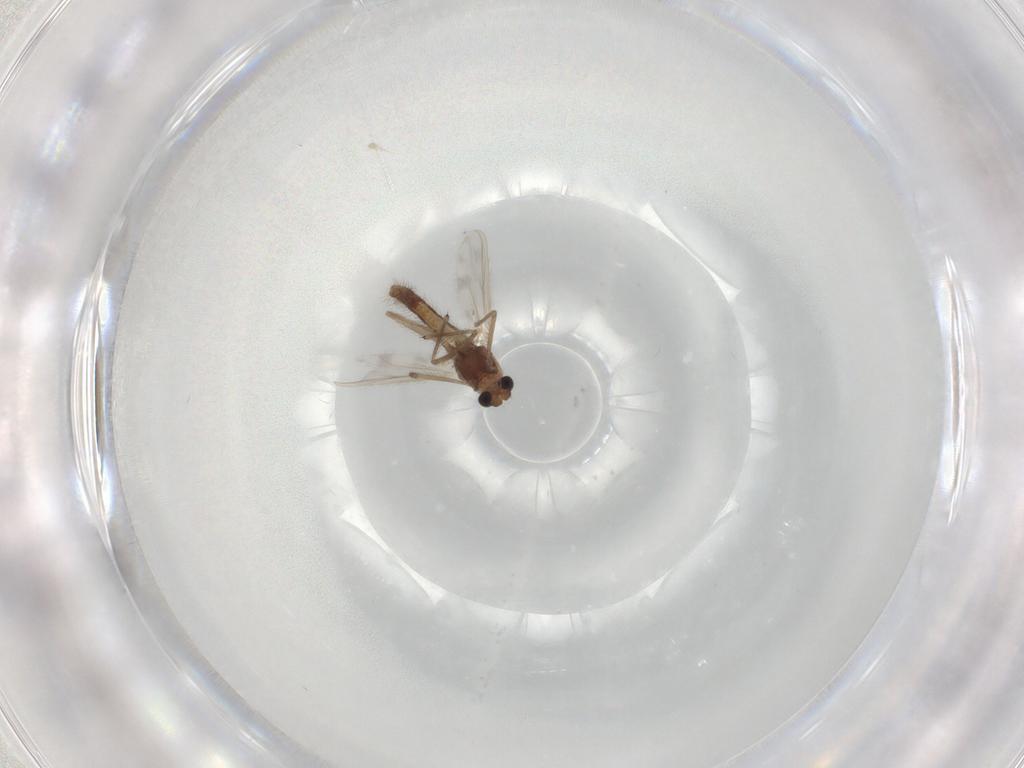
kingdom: Animalia
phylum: Arthropoda
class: Insecta
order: Diptera
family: Chironomidae
